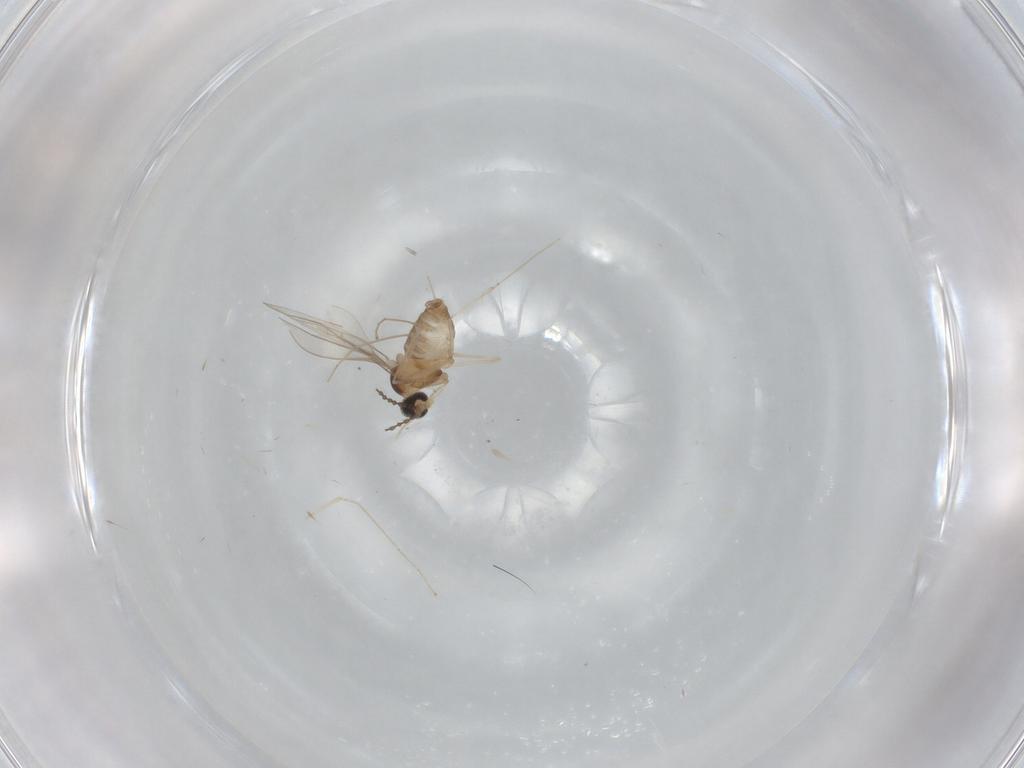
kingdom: Animalia
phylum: Arthropoda
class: Insecta
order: Diptera
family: Cecidomyiidae
